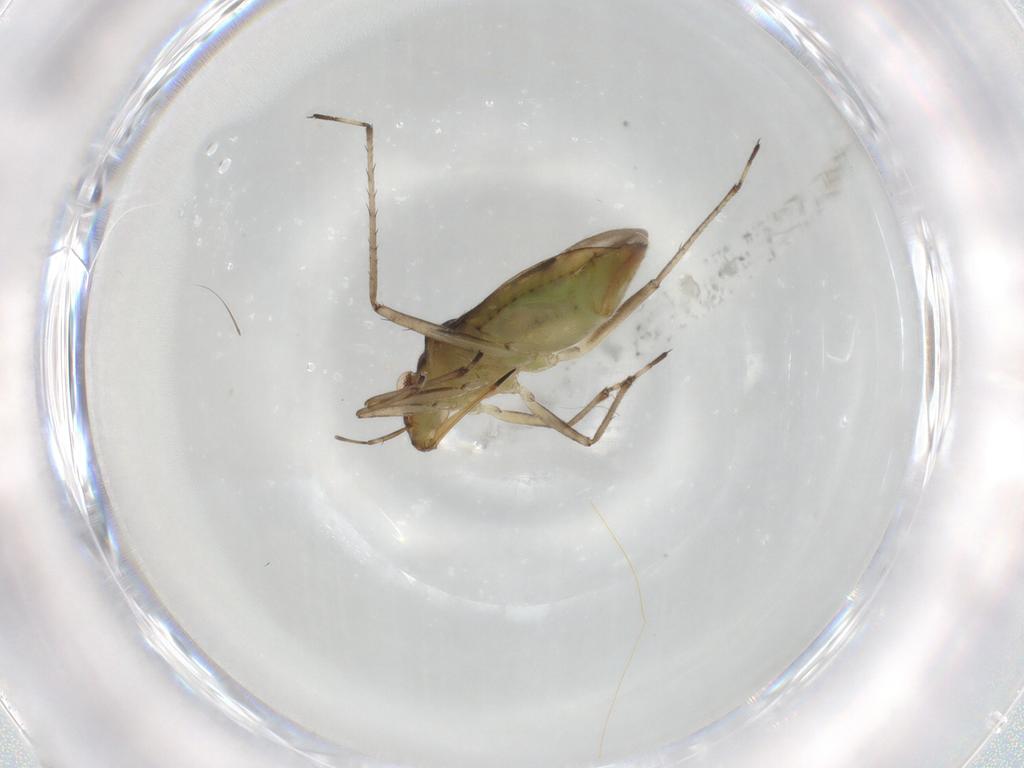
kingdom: Animalia
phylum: Arthropoda
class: Insecta
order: Hemiptera
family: Mesoveliidae
